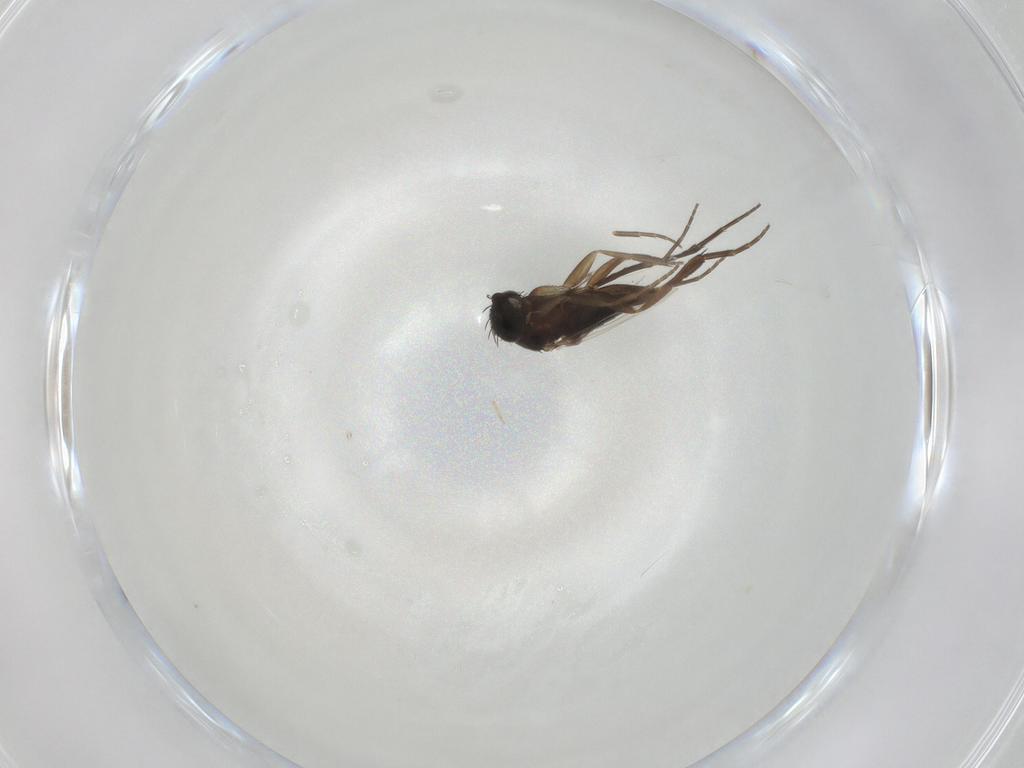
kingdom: Animalia
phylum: Arthropoda
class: Insecta
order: Diptera
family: Phoridae
